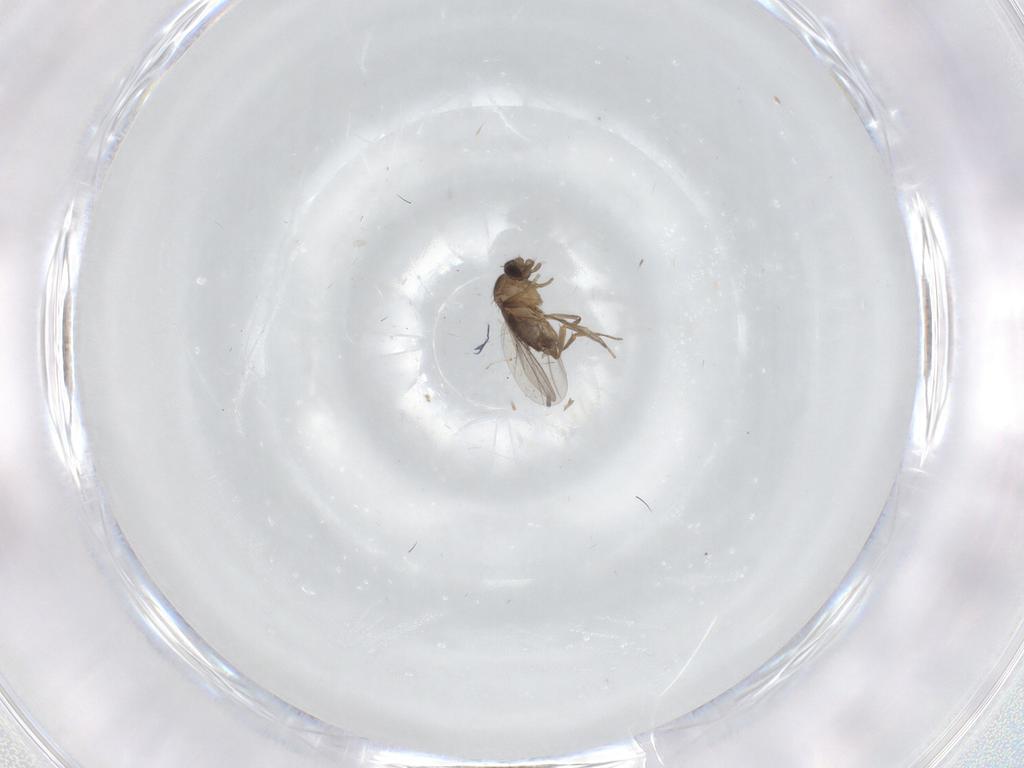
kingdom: Animalia
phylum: Arthropoda
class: Insecta
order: Diptera
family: Phoridae
